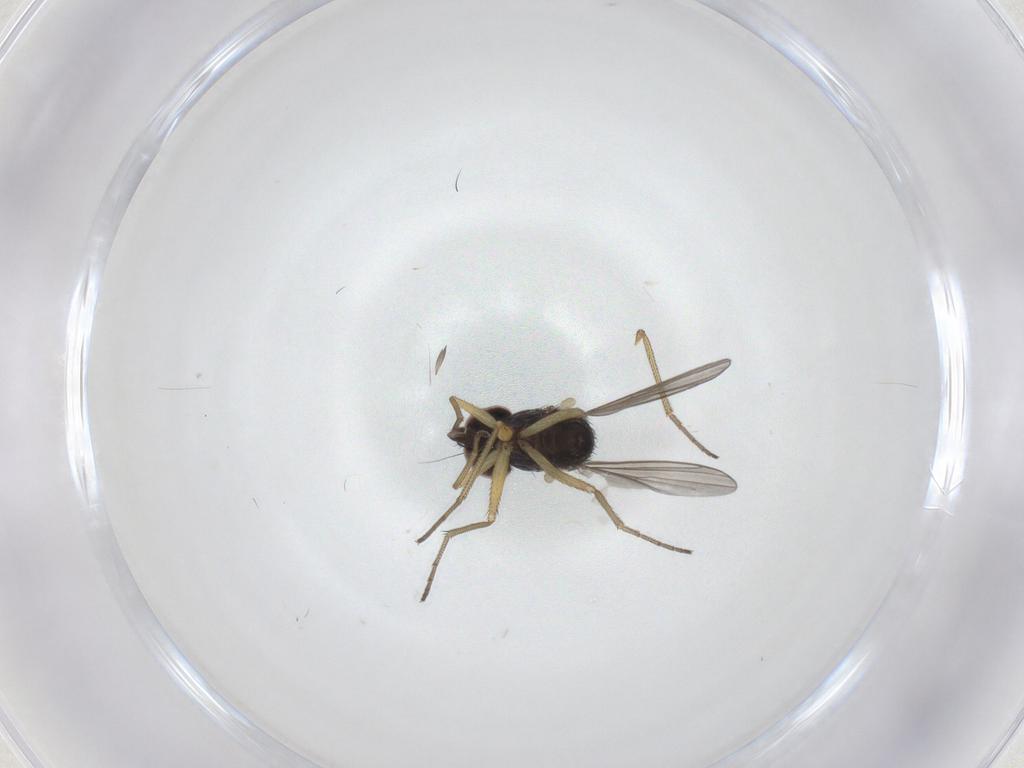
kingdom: Animalia
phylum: Arthropoda
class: Insecta
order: Diptera
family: Dolichopodidae
